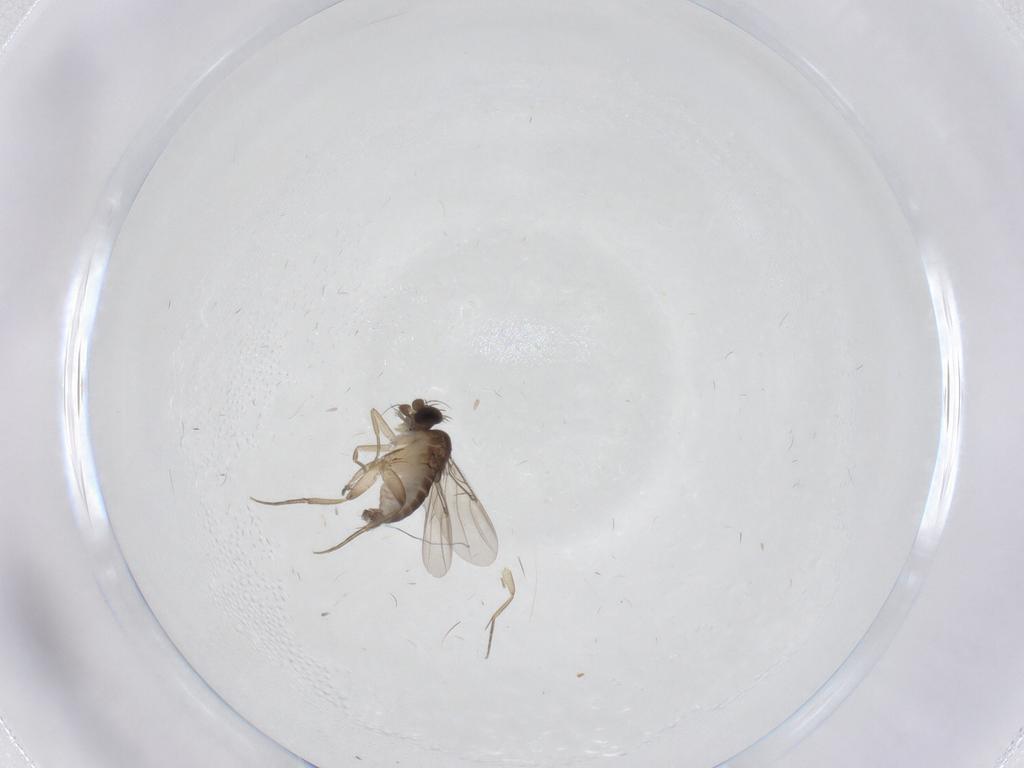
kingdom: Animalia
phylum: Arthropoda
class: Insecta
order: Diptera
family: Phoridae
